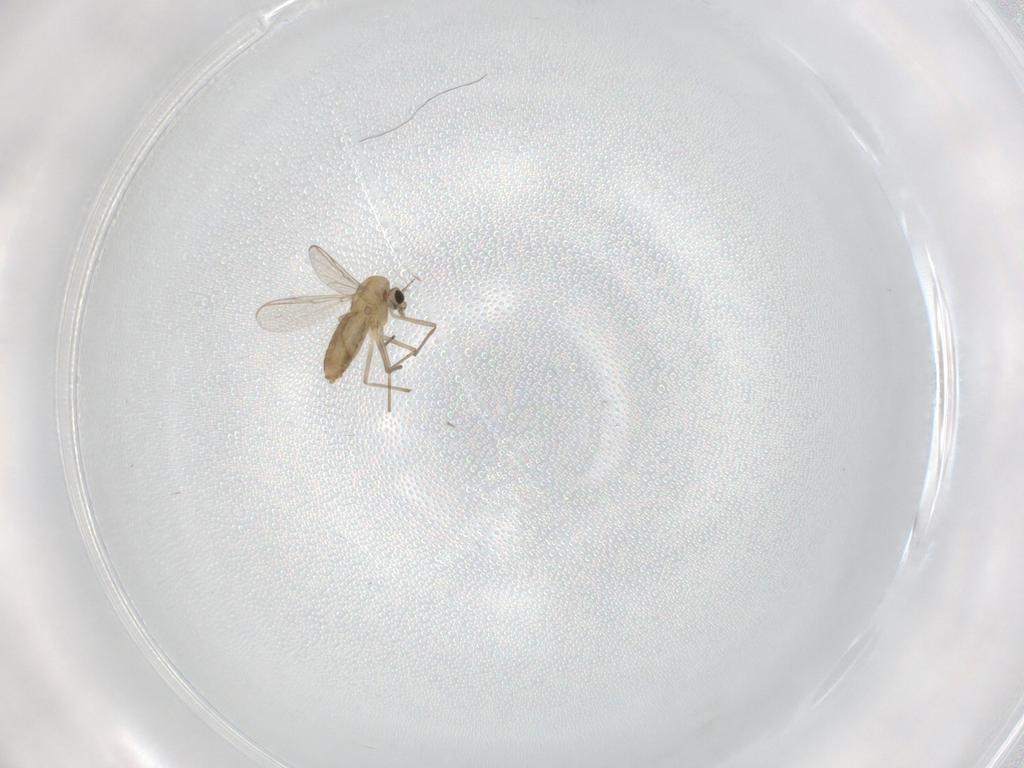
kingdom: Animalia
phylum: Arthropoda
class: Insecta
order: Diptera
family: Chironomidae
